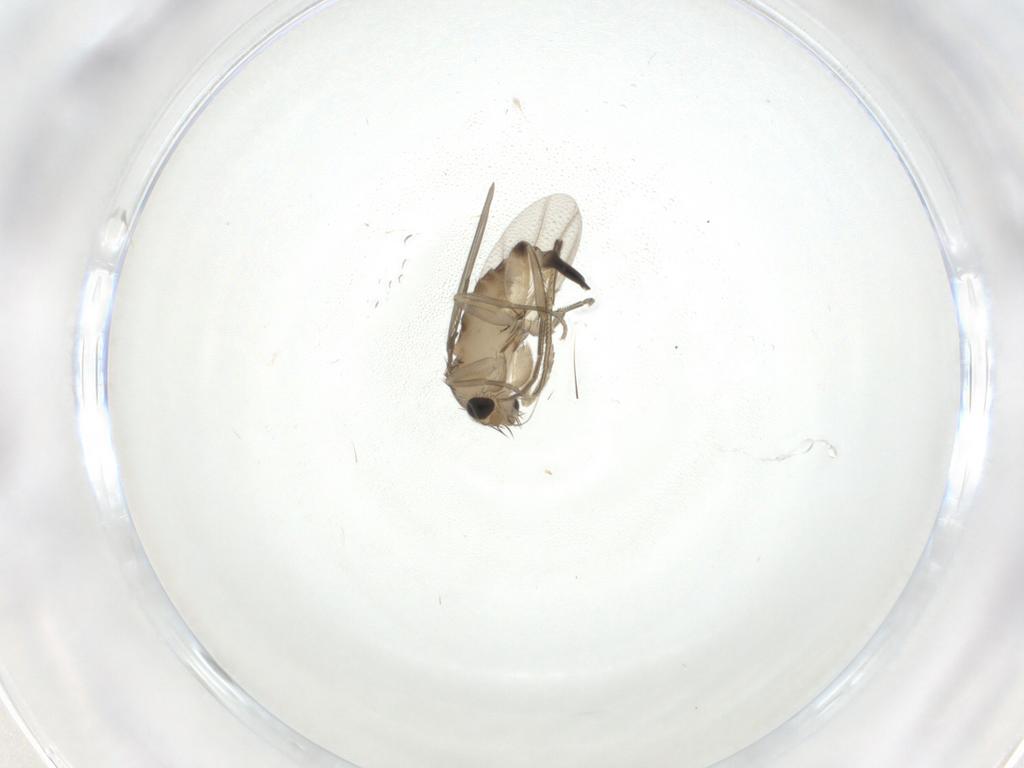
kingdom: Animalia
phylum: Arthropoda
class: Insecta
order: Diptera
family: Phoridae
